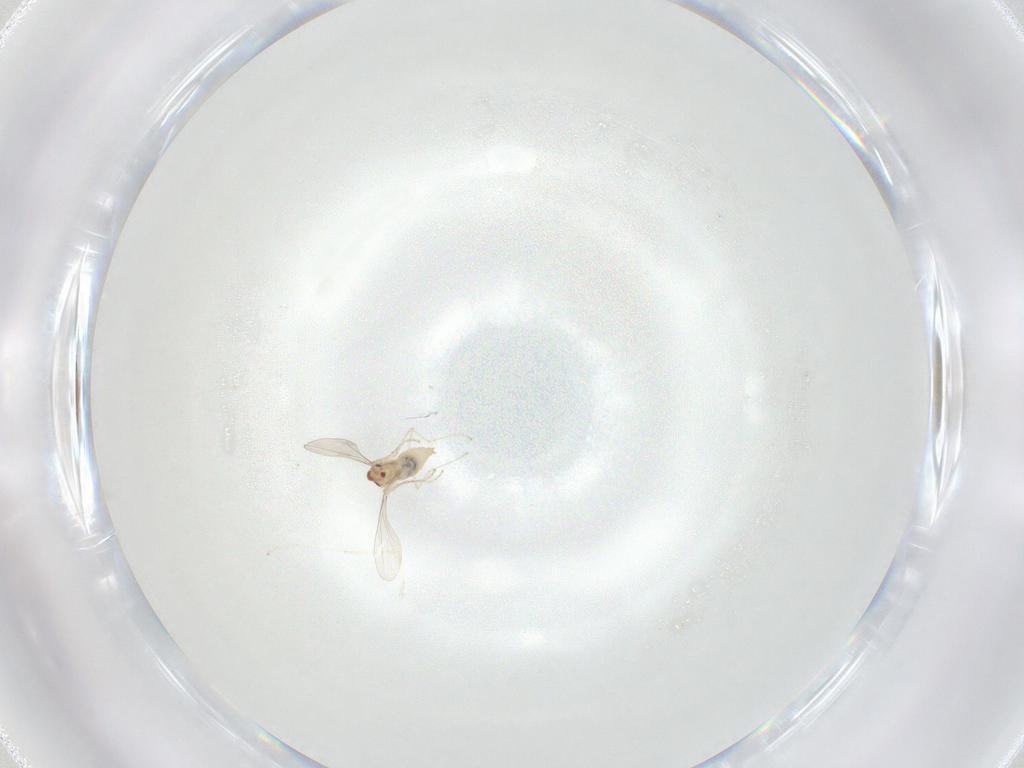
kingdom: Animalia
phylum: Arthropoda
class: Insecta
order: Diptera
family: Cecidomyiidae
